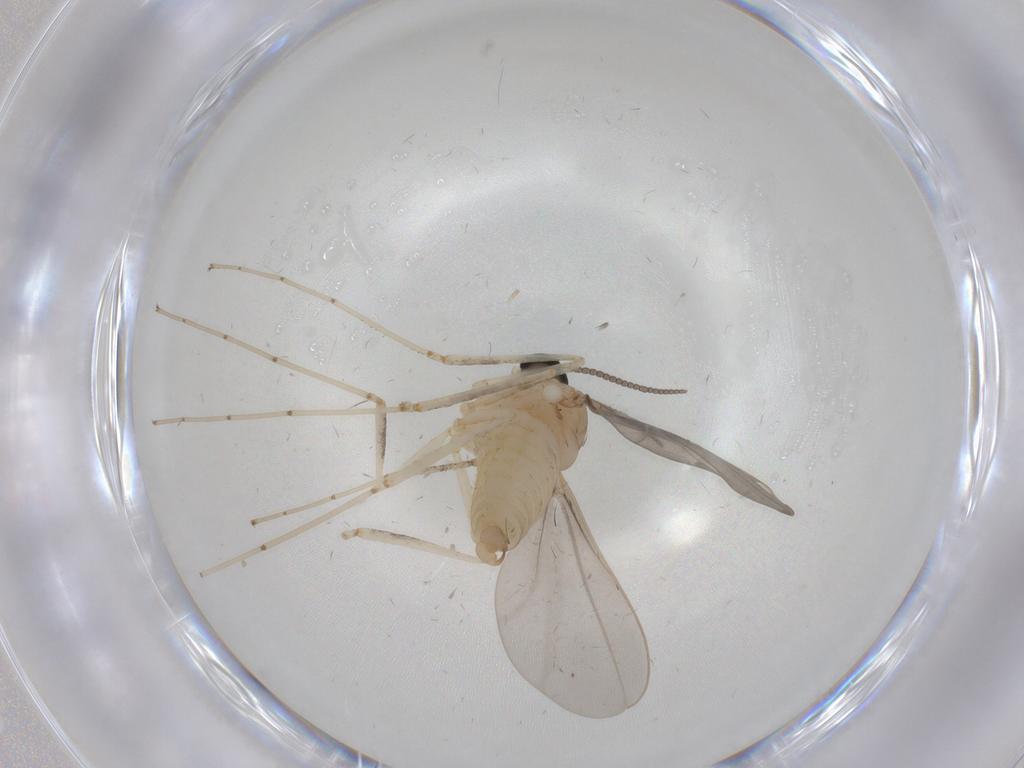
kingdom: Animalia
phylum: Arthropoda
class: Insecta
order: Diptera
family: Cecidomyiidae
